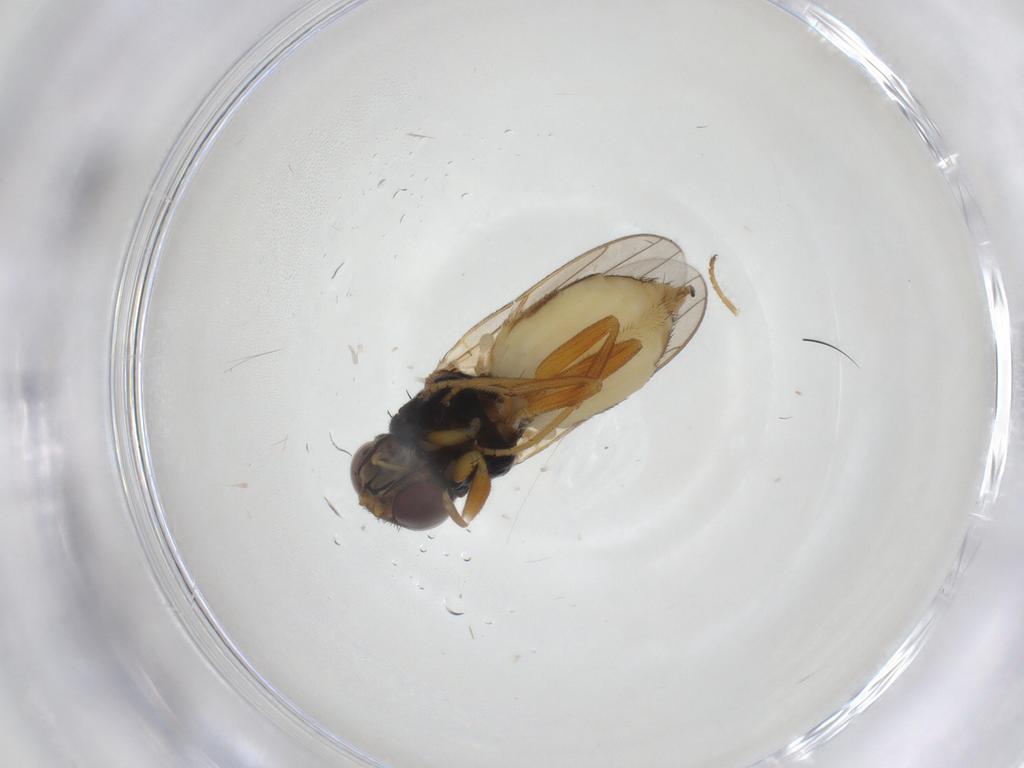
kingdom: Animalia
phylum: Arthropoda
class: Insecta
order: Diptera
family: Chloropidae
